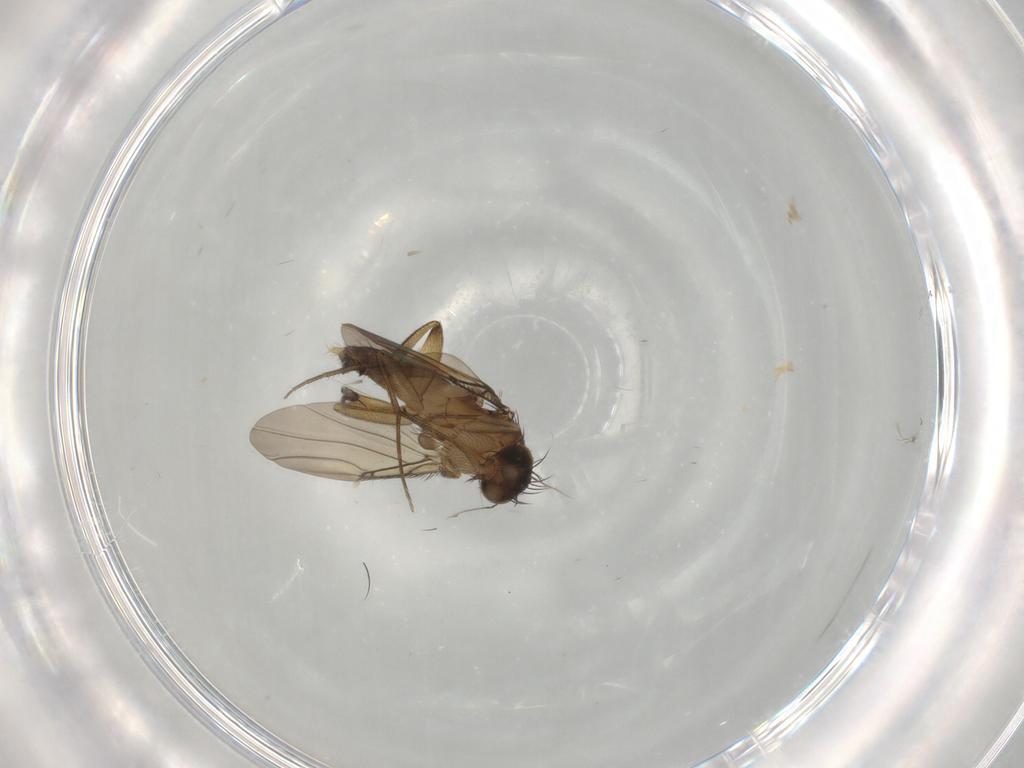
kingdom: Animalia
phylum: Arthropoda
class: Insecta
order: Diptera
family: Phoridae
